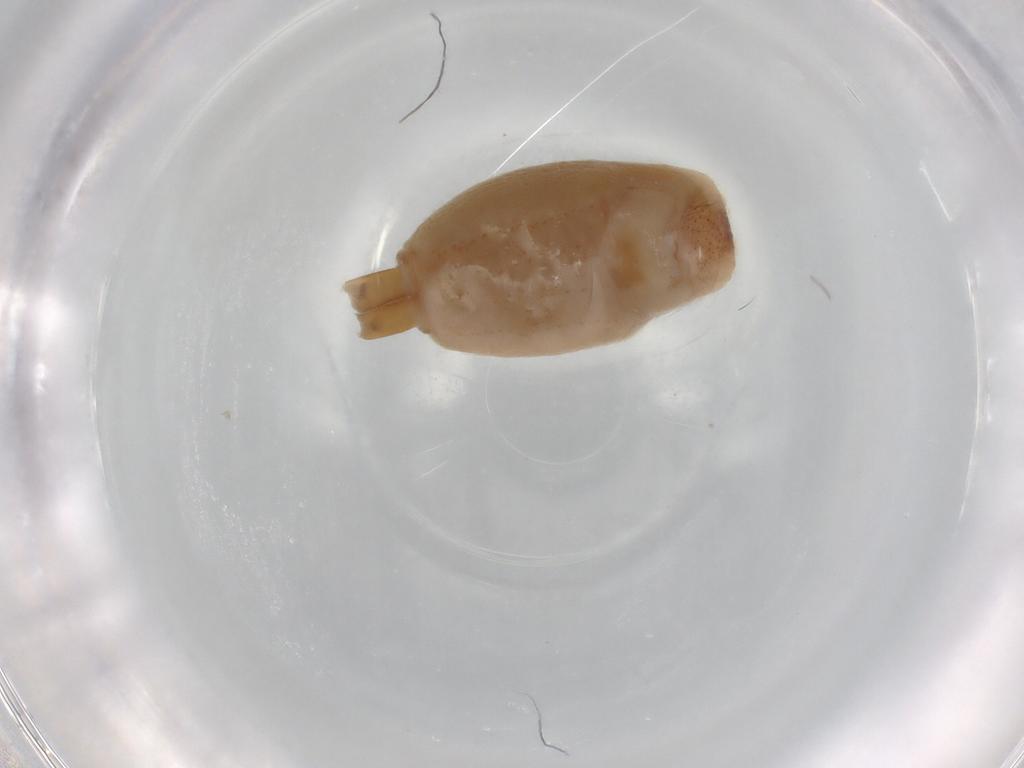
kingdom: Animalia
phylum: Arthropoda
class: Arachnida
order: Araneae
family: Clubionidae
